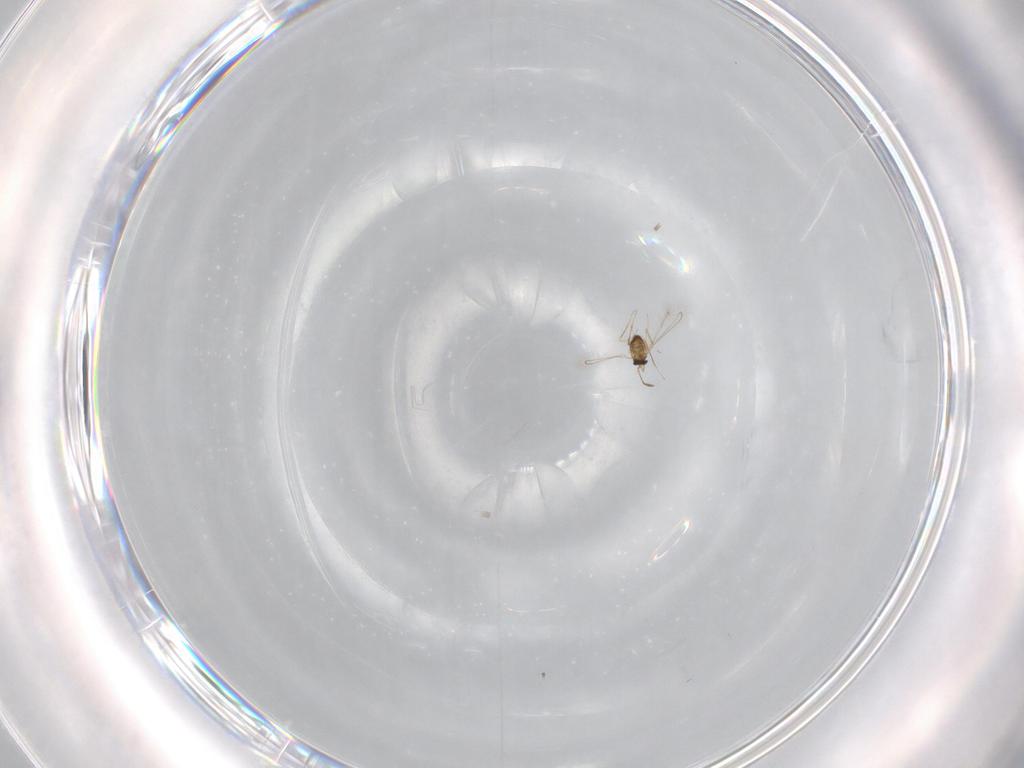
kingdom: Animalia
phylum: Arthropoda
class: Insecta
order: Hymenoptera
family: Mymaridae
